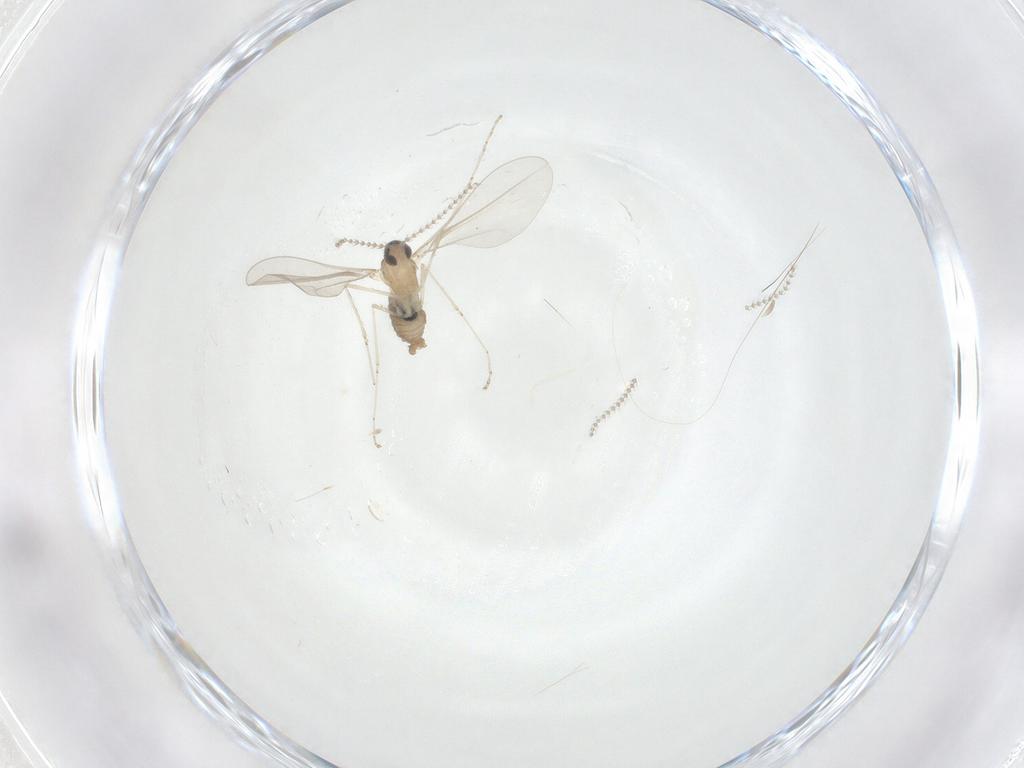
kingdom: Animalia
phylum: Arthropoda
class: Insecta
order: Diptera
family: Cecidomyiidae
